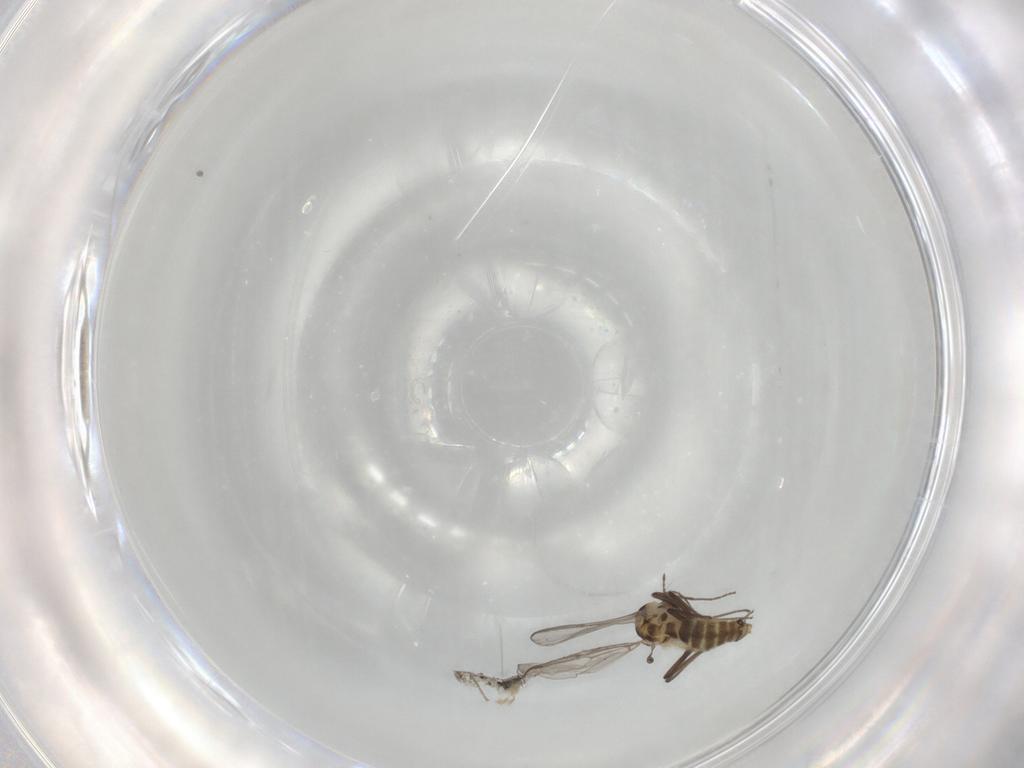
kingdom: Animalia
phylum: Arthropoda
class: Insecta
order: Diptera
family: Chironomidae
